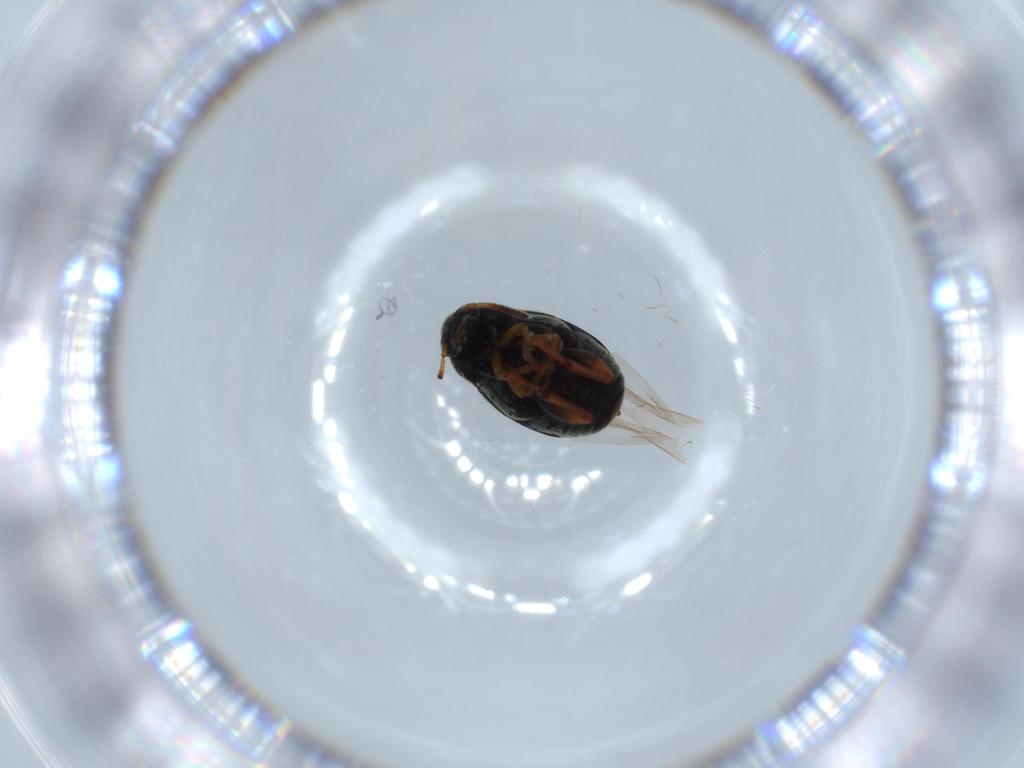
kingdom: Animalia
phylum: Arthropoda
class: Insecta
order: Coleoptera
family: Chrysomelidae
